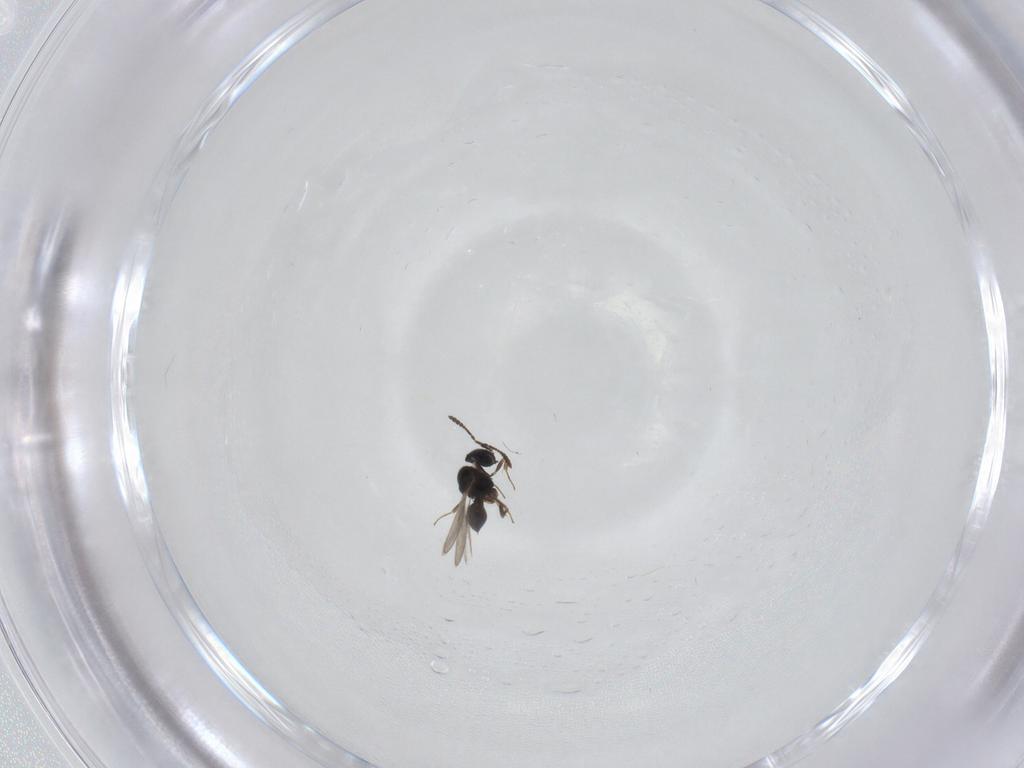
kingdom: Animalia
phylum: Arthropoda
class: Insecta
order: Hymenoptera
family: Scelionidae
